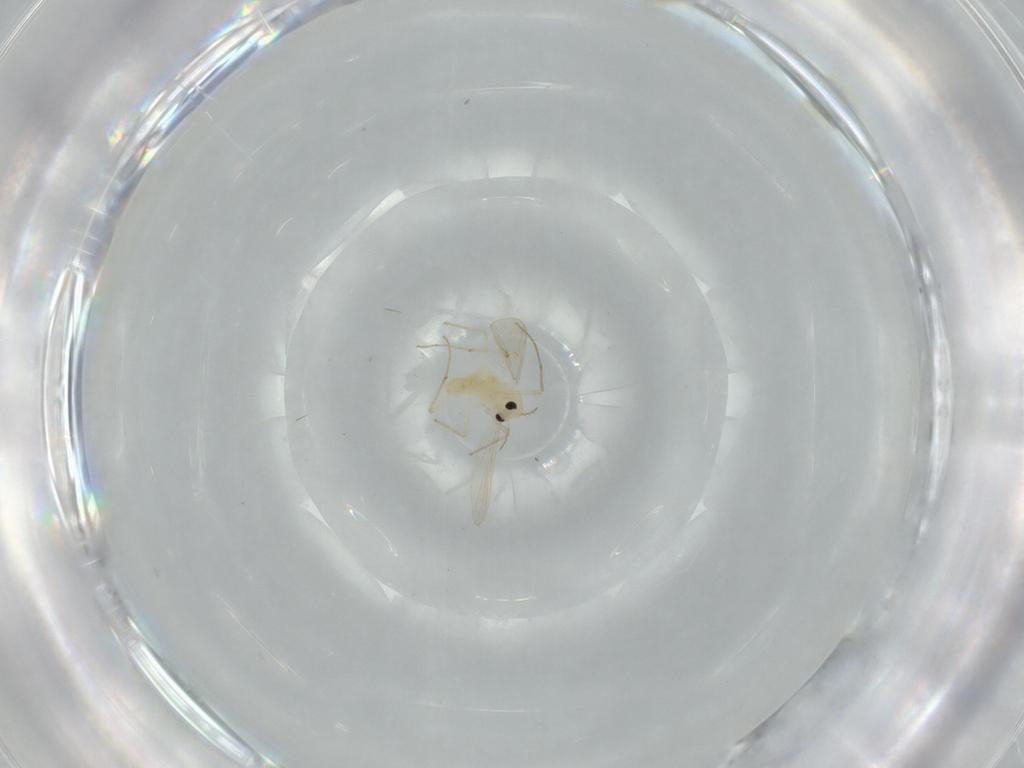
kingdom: Animalia
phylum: Arthropoda
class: Insecta
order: Diptera
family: Chironomidae
